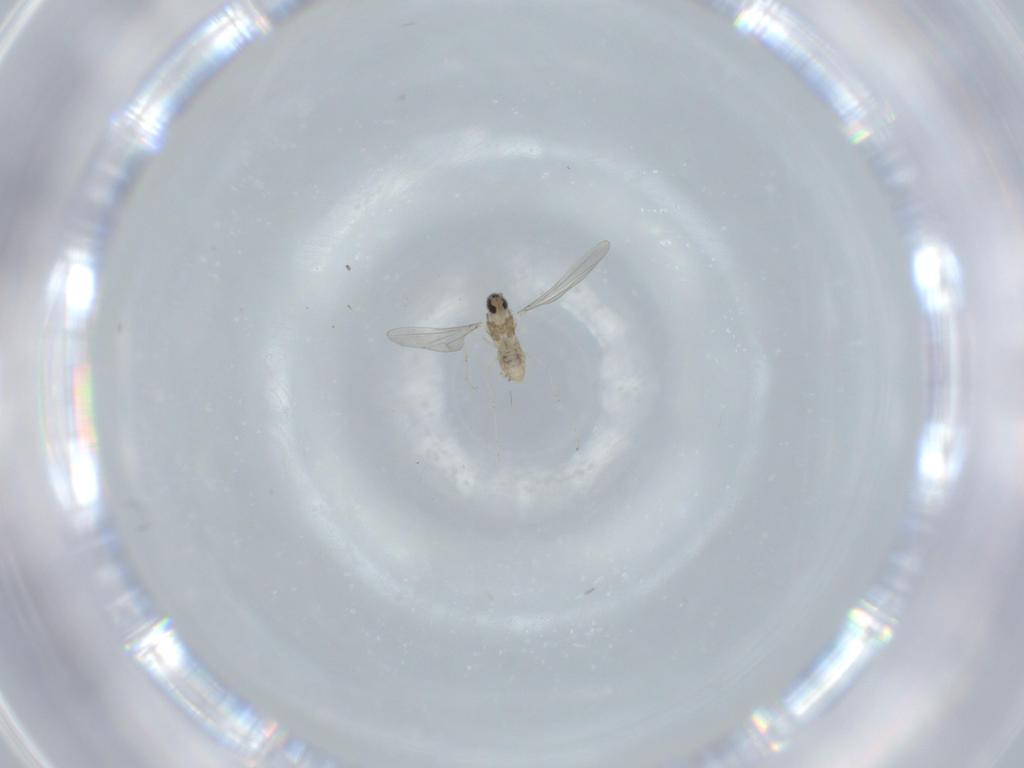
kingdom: Animalia
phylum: Arthropoda
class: Insecta
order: Diptera
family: Cecidomyiidae
